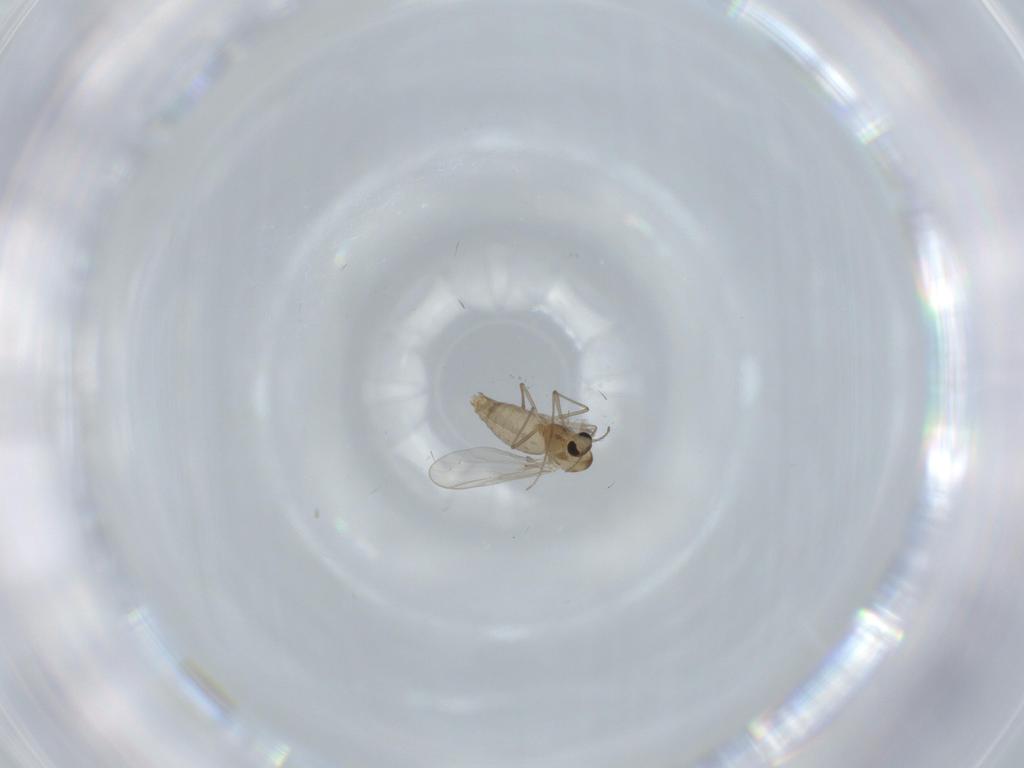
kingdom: Animalia
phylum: Arthropoda
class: Insecta
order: Diptera
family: Chironomidae
